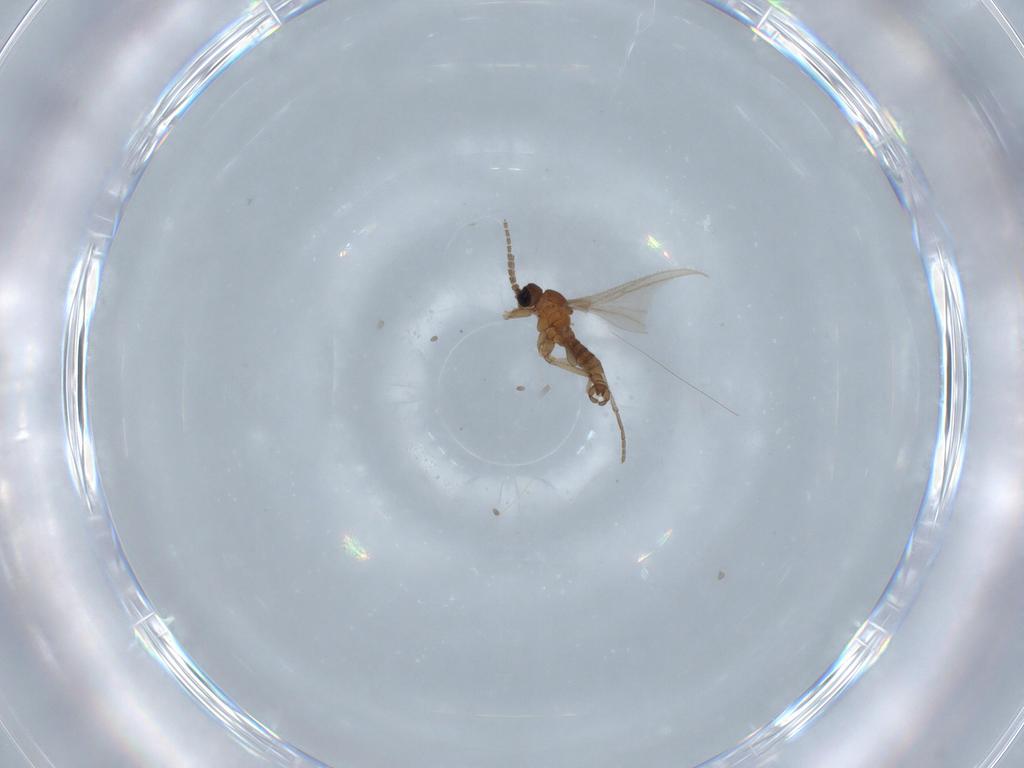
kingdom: Animalia
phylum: Arthropoda
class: Insecta
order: Diptera
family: Sciaridae
